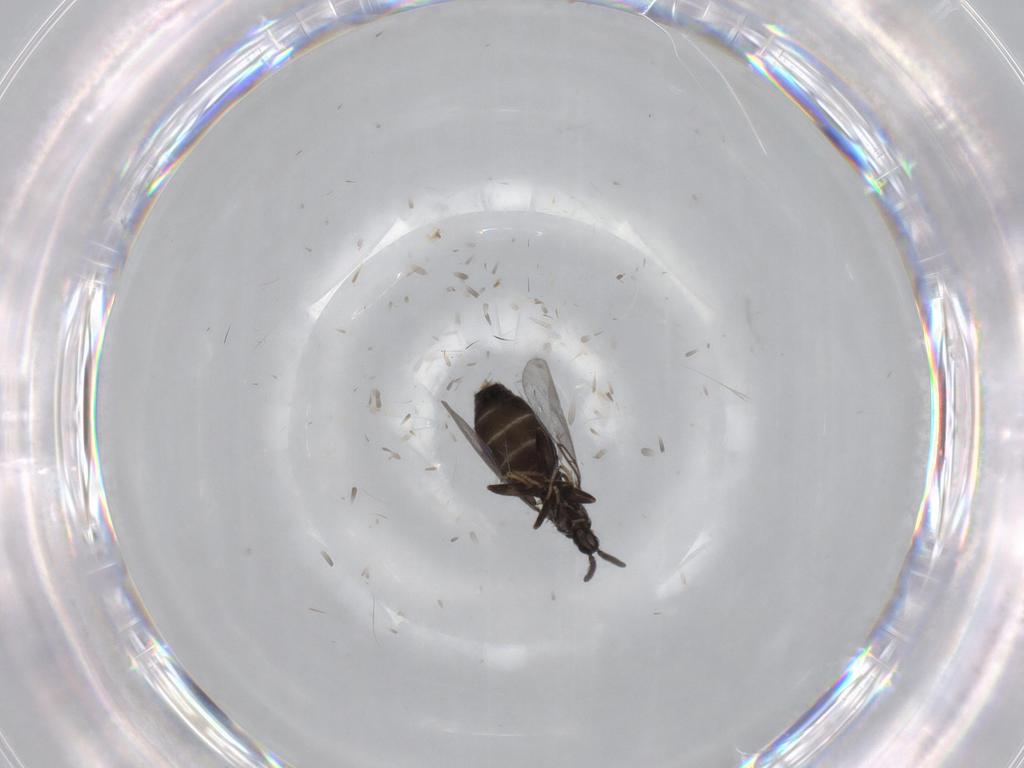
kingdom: Animalia
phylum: Arthropoda
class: Insecta
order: Diptera
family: Scatopsidae
